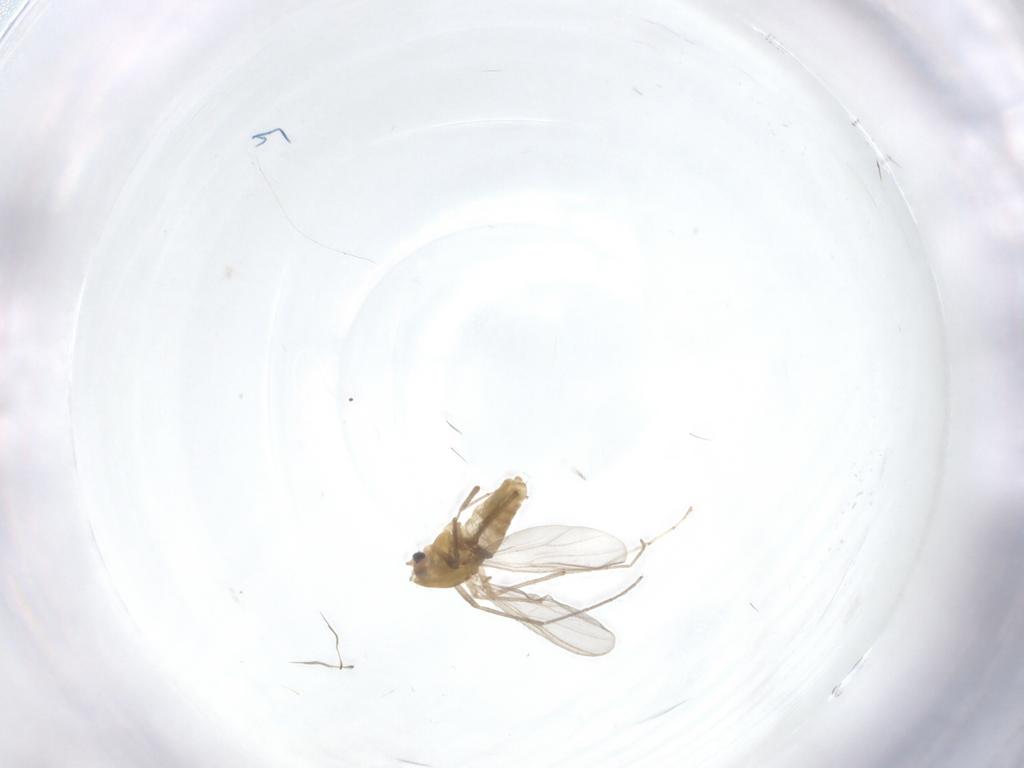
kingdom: Animalia
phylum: Arthropoda
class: Insecta
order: Diptera
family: Chironomidae
